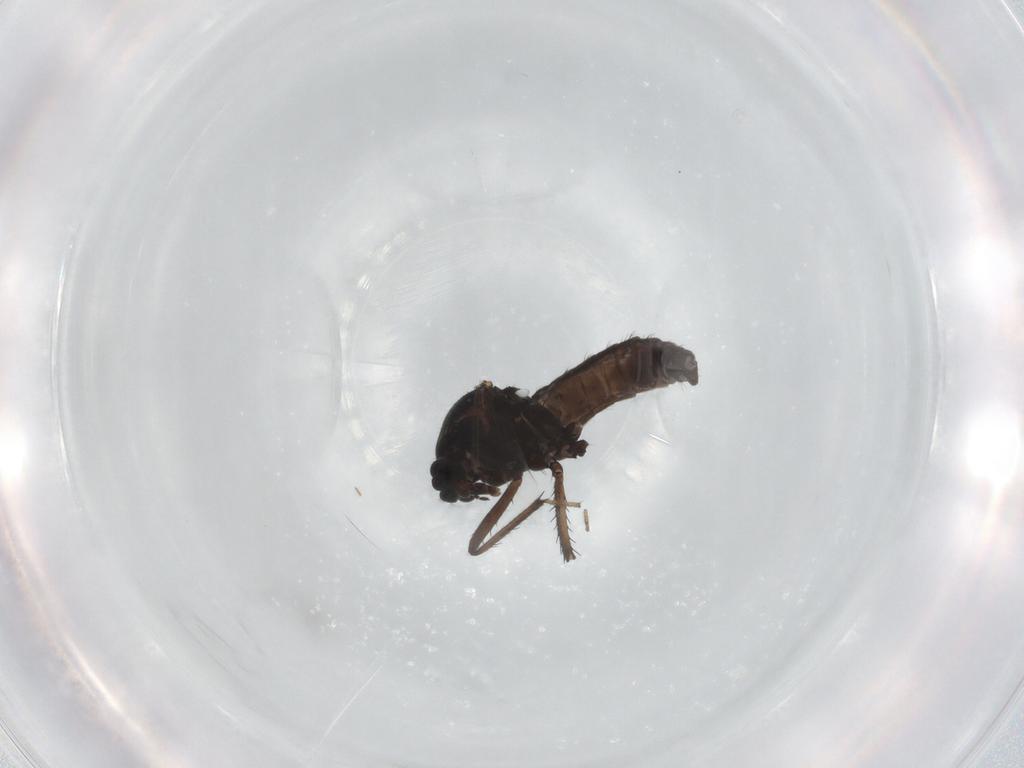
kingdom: Animalia
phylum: Arthropoda
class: Insecta
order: Diptera
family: Ceratopogonidae
